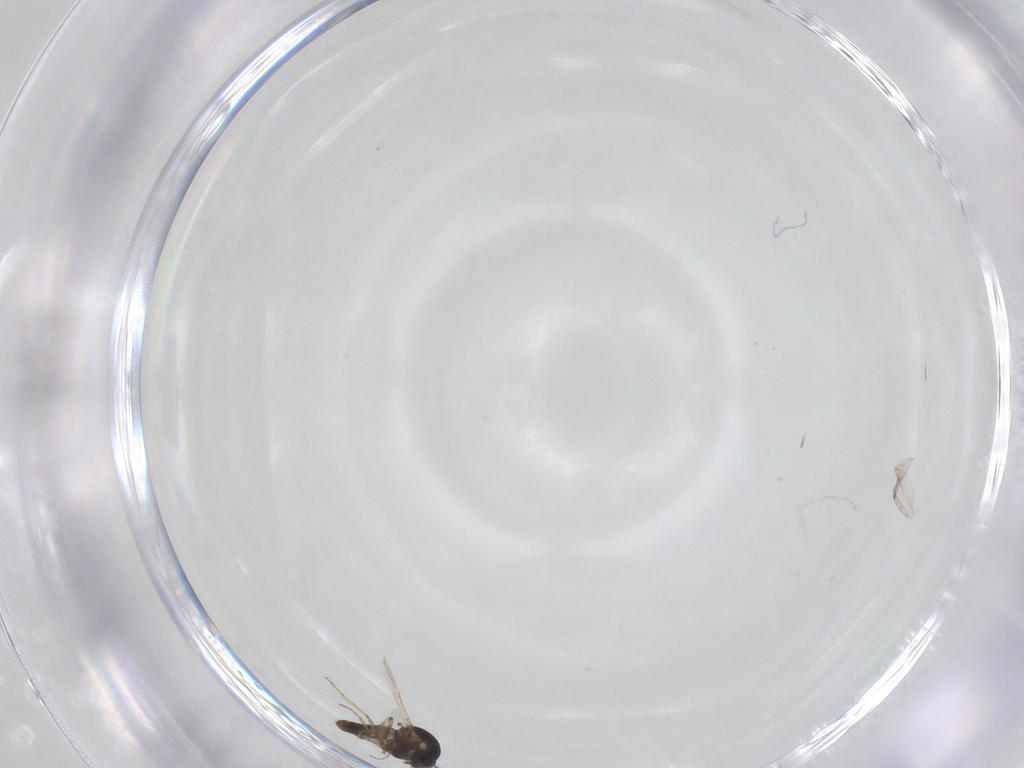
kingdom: Animalia
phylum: Arthropoda
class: Insecta
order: Diptera
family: Ceratopogonidae
